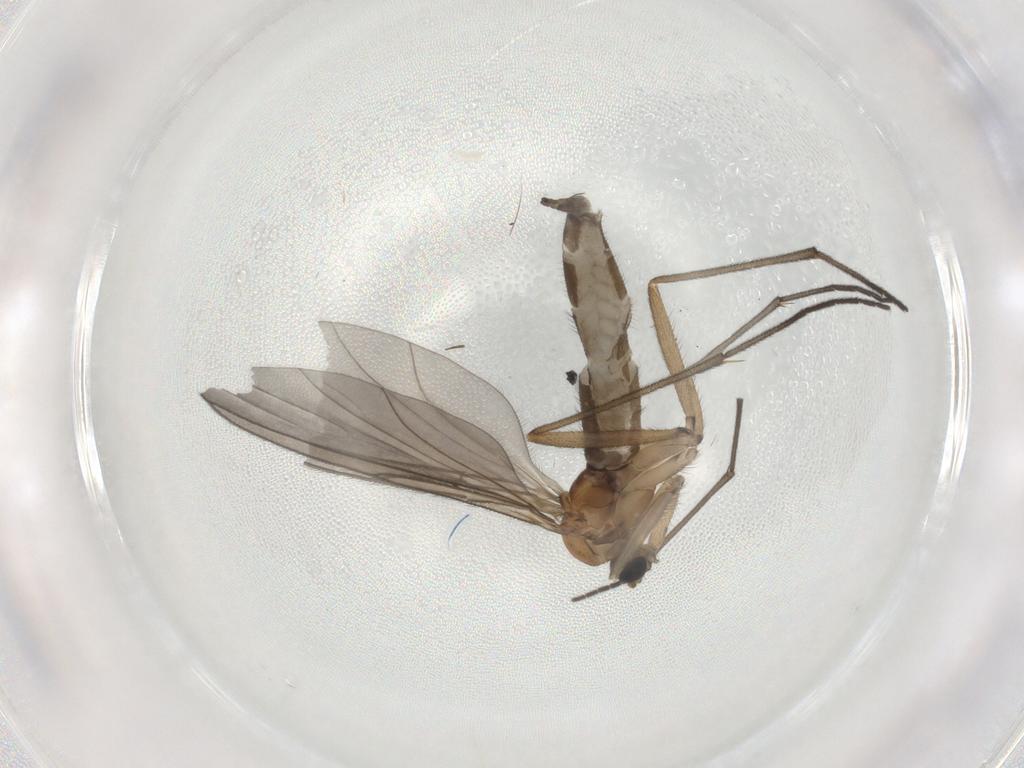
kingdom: Animalia
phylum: Arthropoda
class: Insecta
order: Diptera
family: Sciaridae
